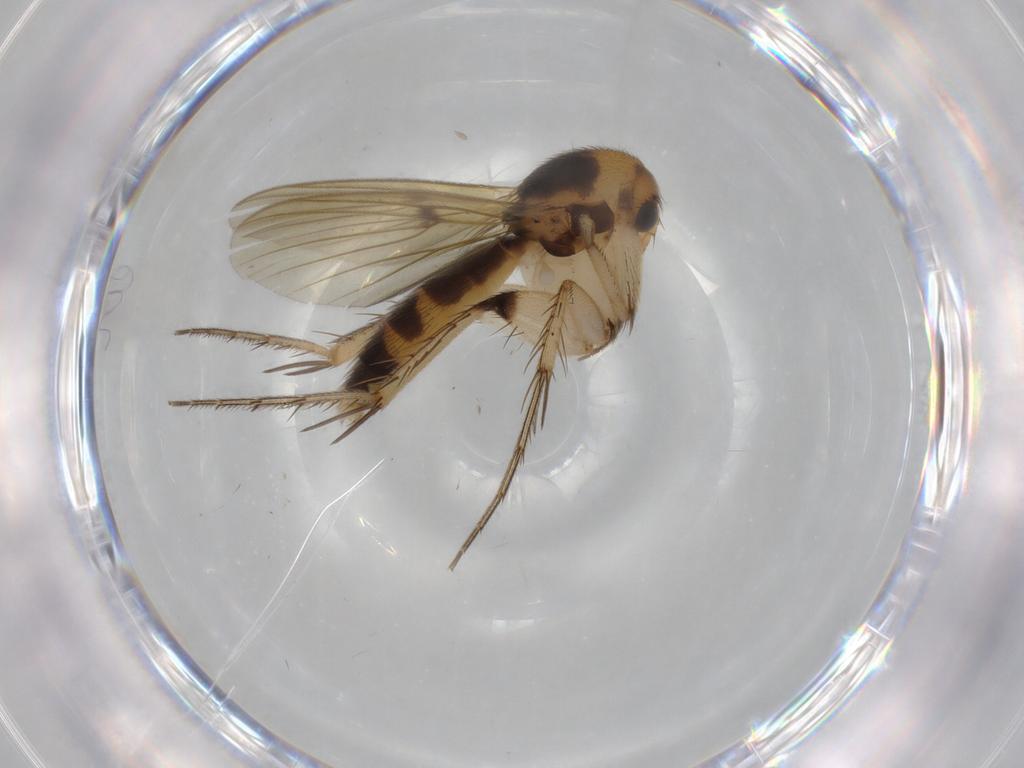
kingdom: Animalia
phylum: Arthropoda
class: Insecta
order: Diptera
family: Mycetophilidae
